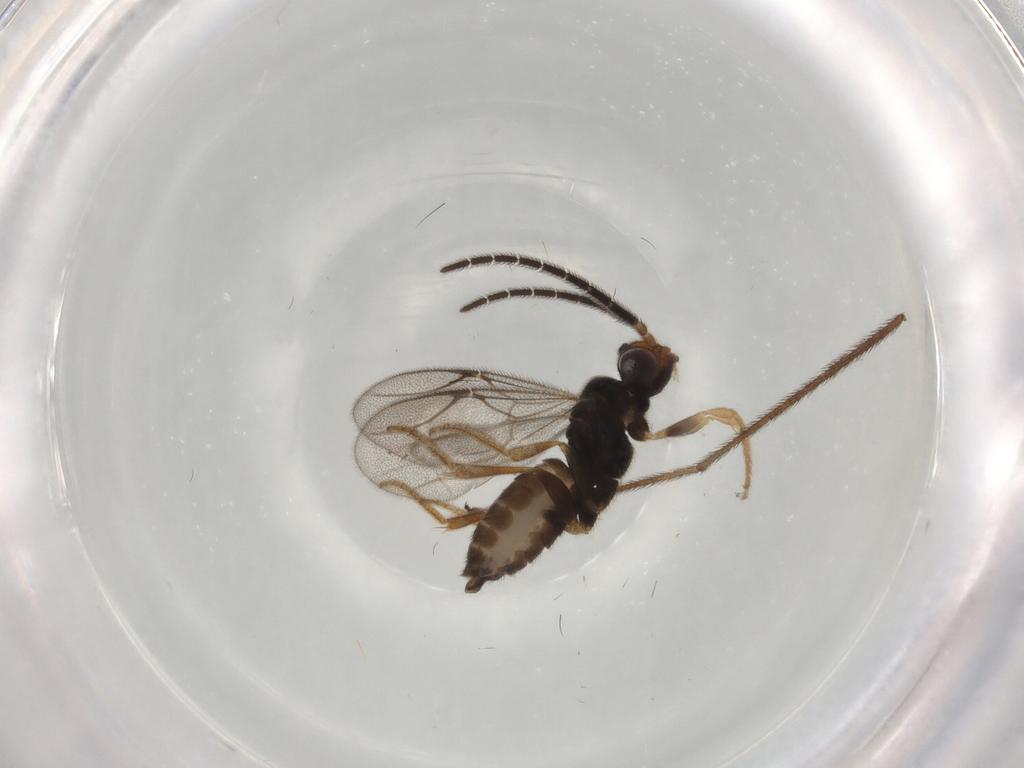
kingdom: Animalia
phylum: Arthropoda
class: Insecta
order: Hymenoptera
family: Dryinidae
